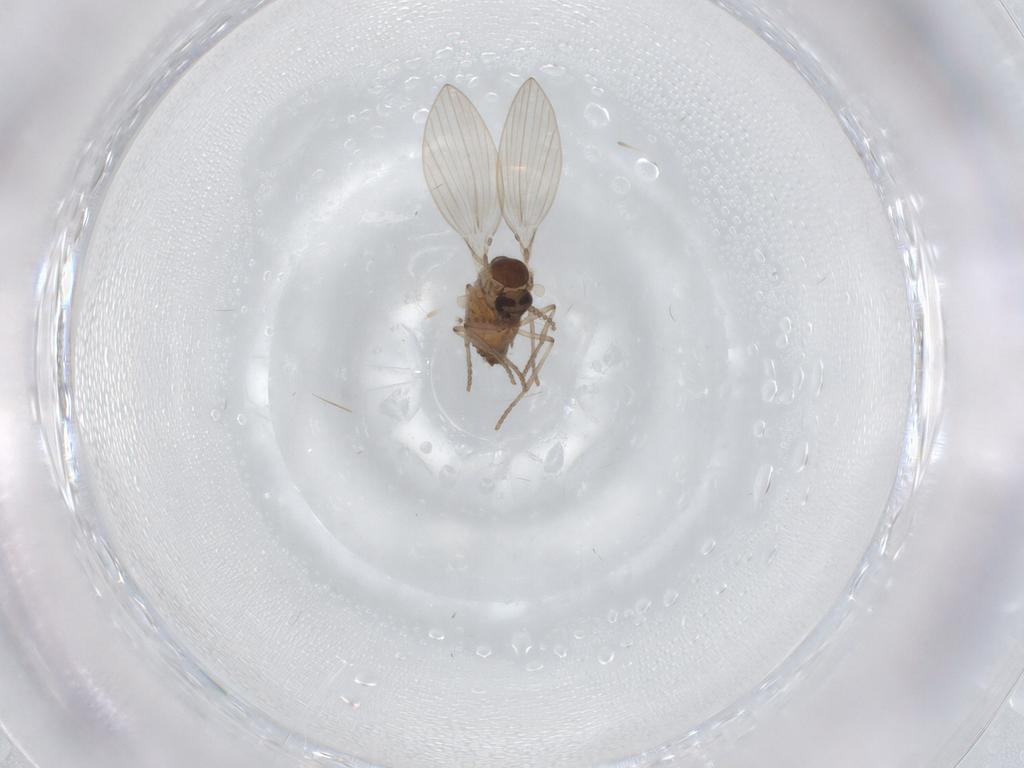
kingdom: Animalia
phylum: Arthropoda
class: Insecta
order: Diptera
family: Psychodidae
